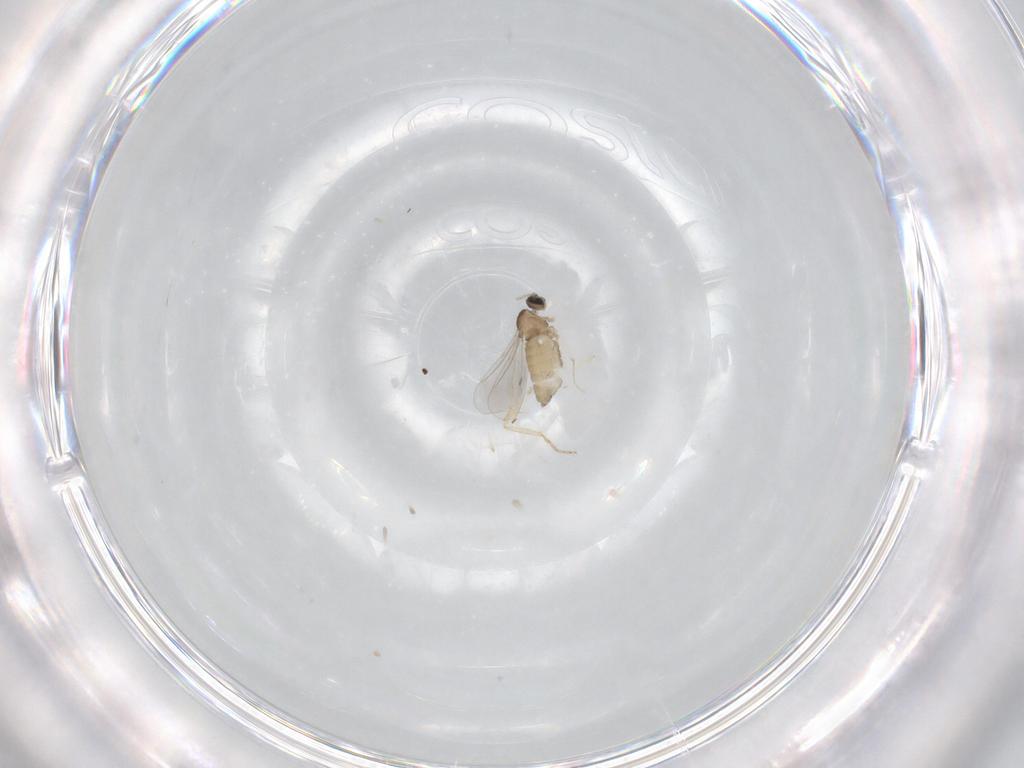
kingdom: Animalia
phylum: Arthropoda
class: Insecta
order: Diptera
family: Cecidomyiidae
